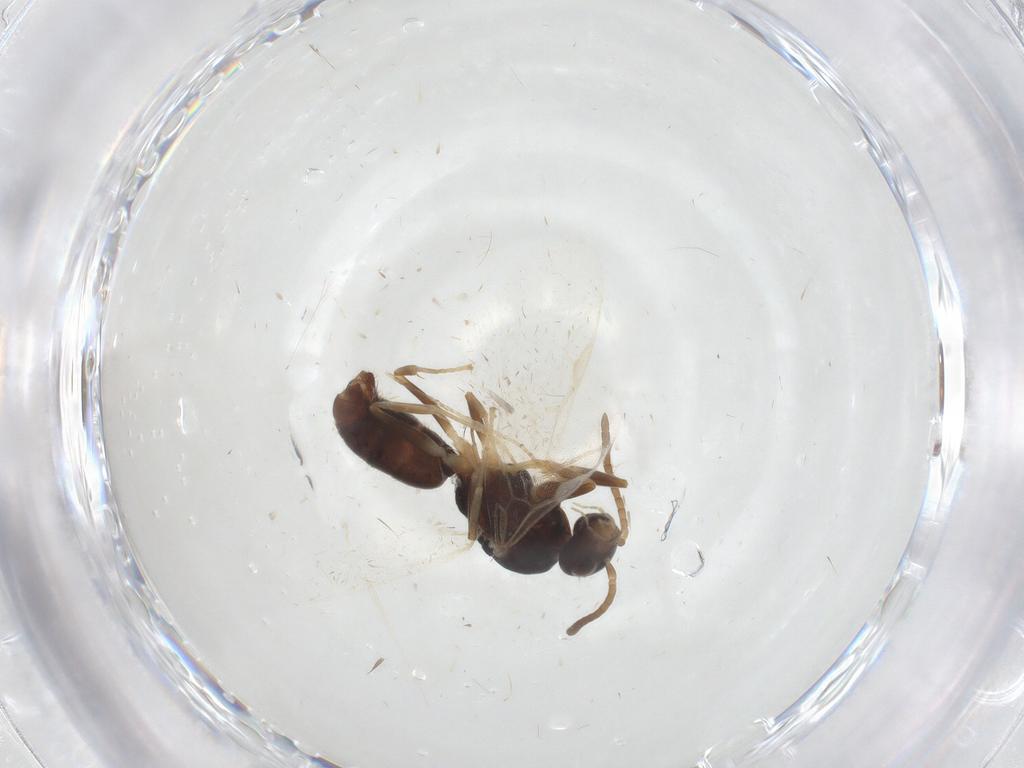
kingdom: Animalia
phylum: Arthropoda
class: Insecta
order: Hymenoptera
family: Formicidae
